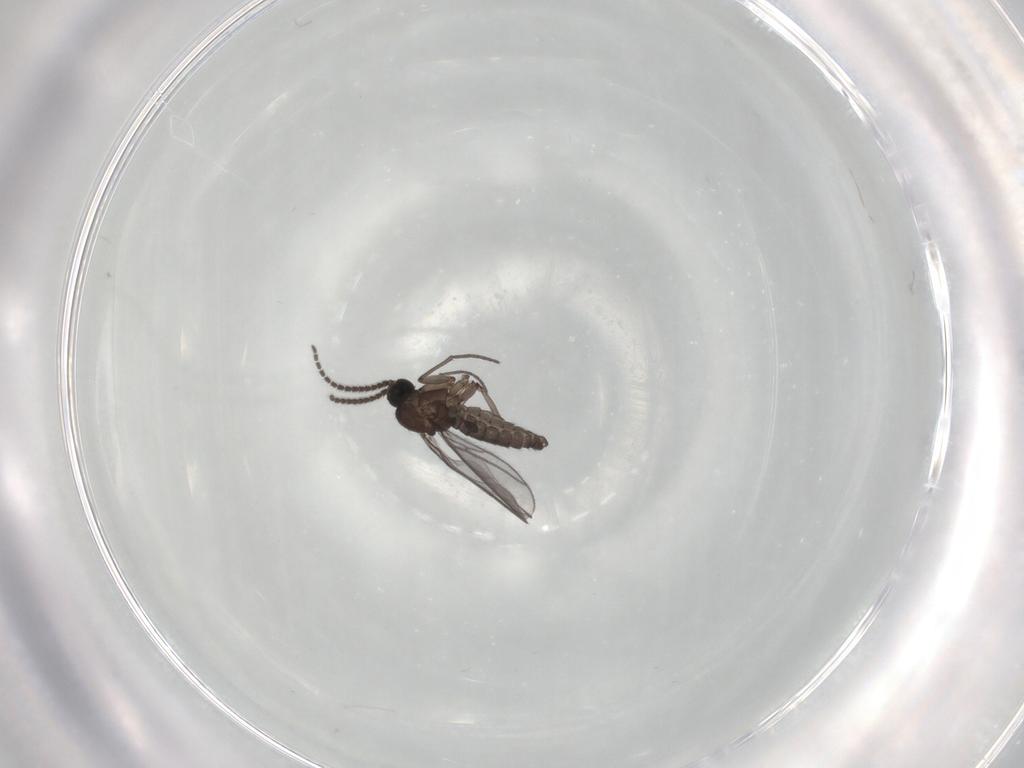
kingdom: Animalia
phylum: Arthropoda
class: Insecta
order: Diptera
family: Sciaridae
